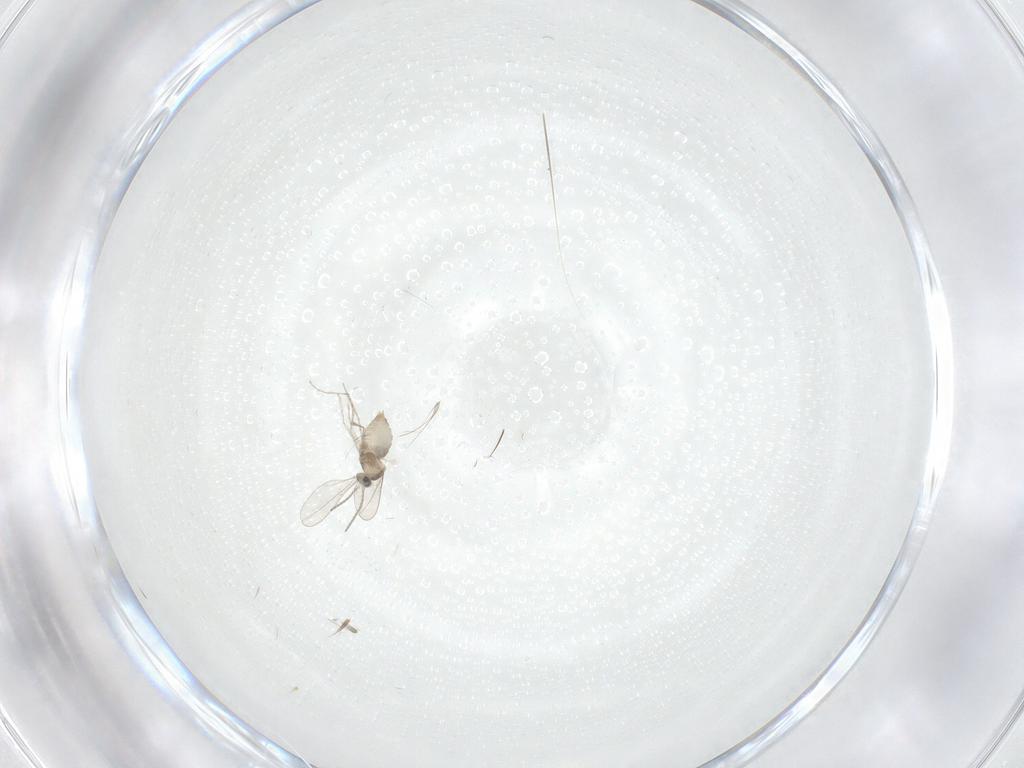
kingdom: Animalia
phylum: Arthropoda
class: Insecta
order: Diptera
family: Cecidomyiidae
